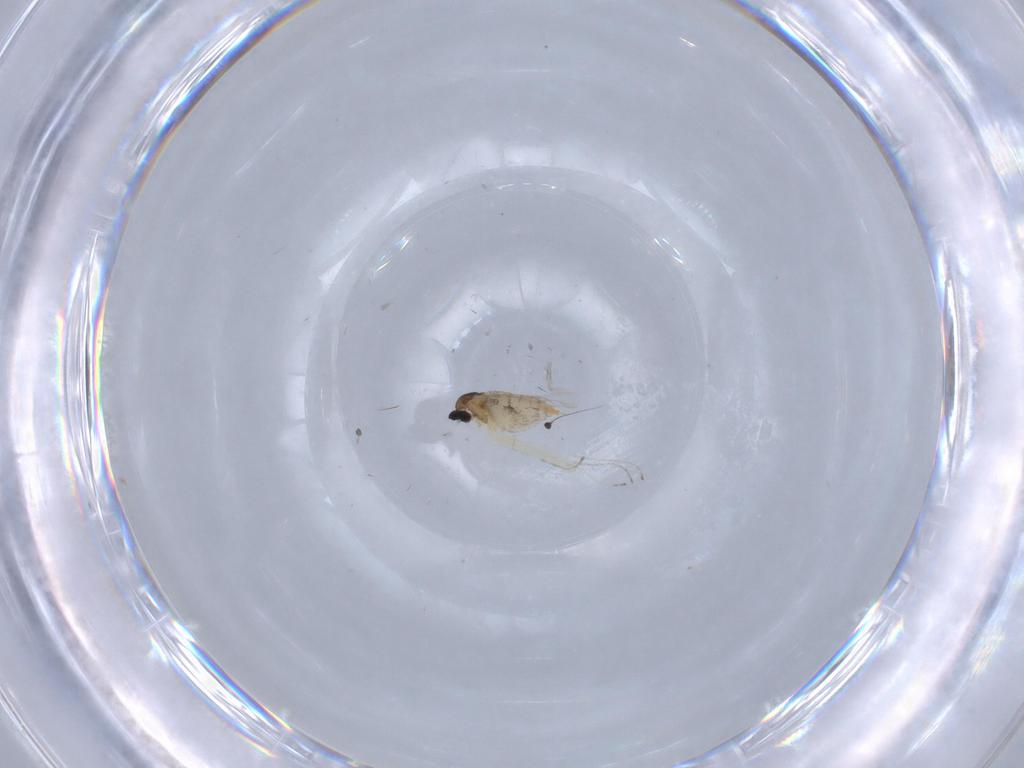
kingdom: Animalia
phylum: Arthropoda
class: Insecta
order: Diptera
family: Cecidomyiidae
